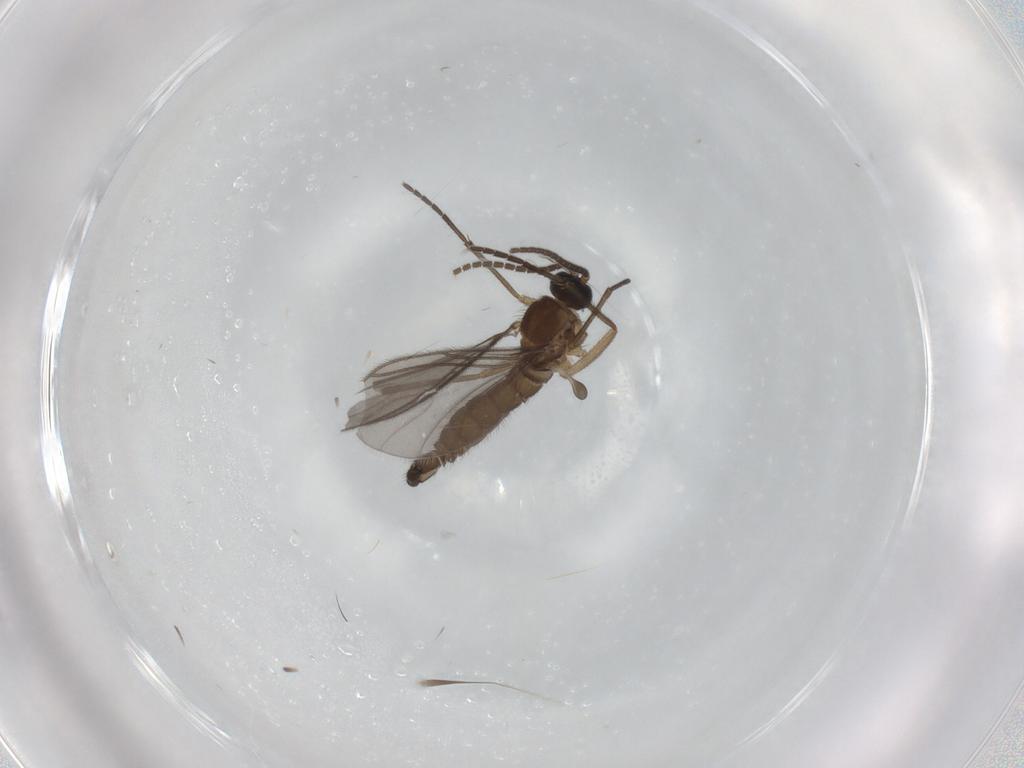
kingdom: Animalia
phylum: Arthropoda
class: Insecta
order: Diptera
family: Sciaridae
